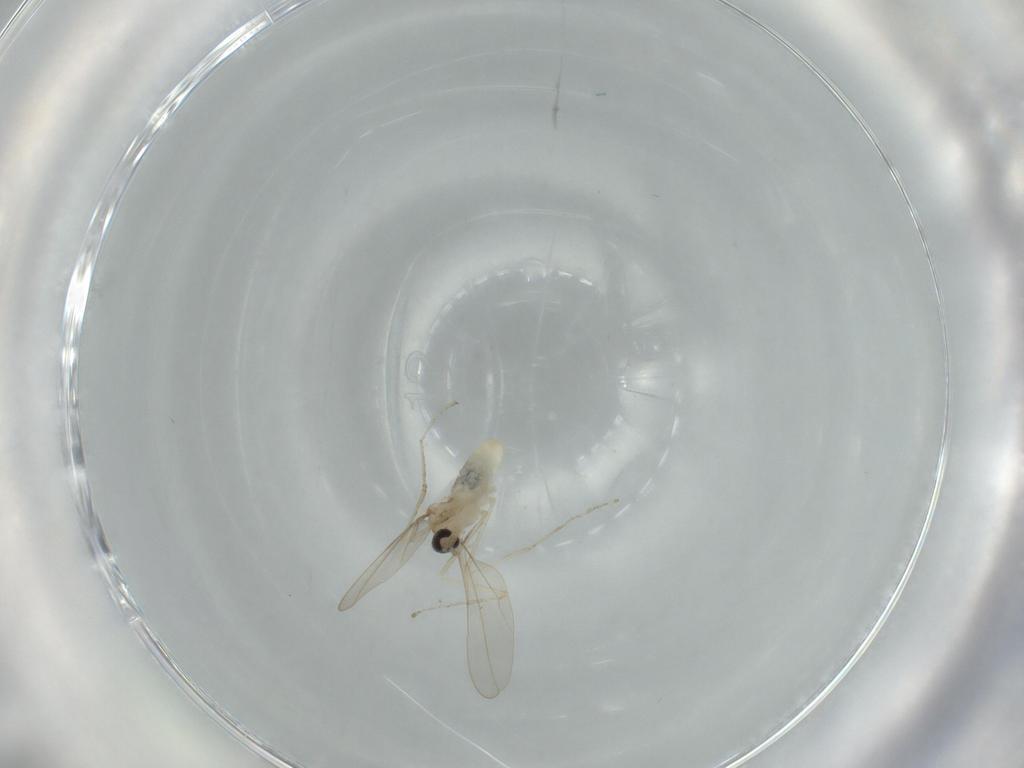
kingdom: Animalia
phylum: Arthropoda
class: Insecta
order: Diptera
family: Cecidomyiidae
